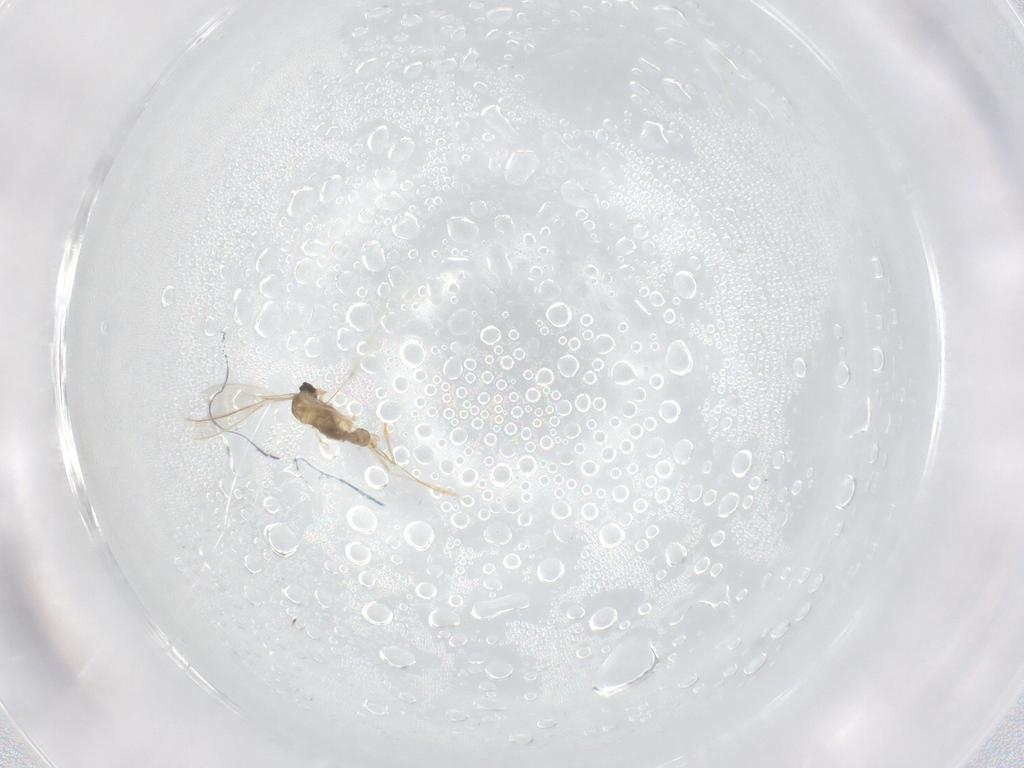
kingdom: Animalia
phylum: Arthropoda
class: Insecta
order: Diptera
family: Cecidomyiidae
